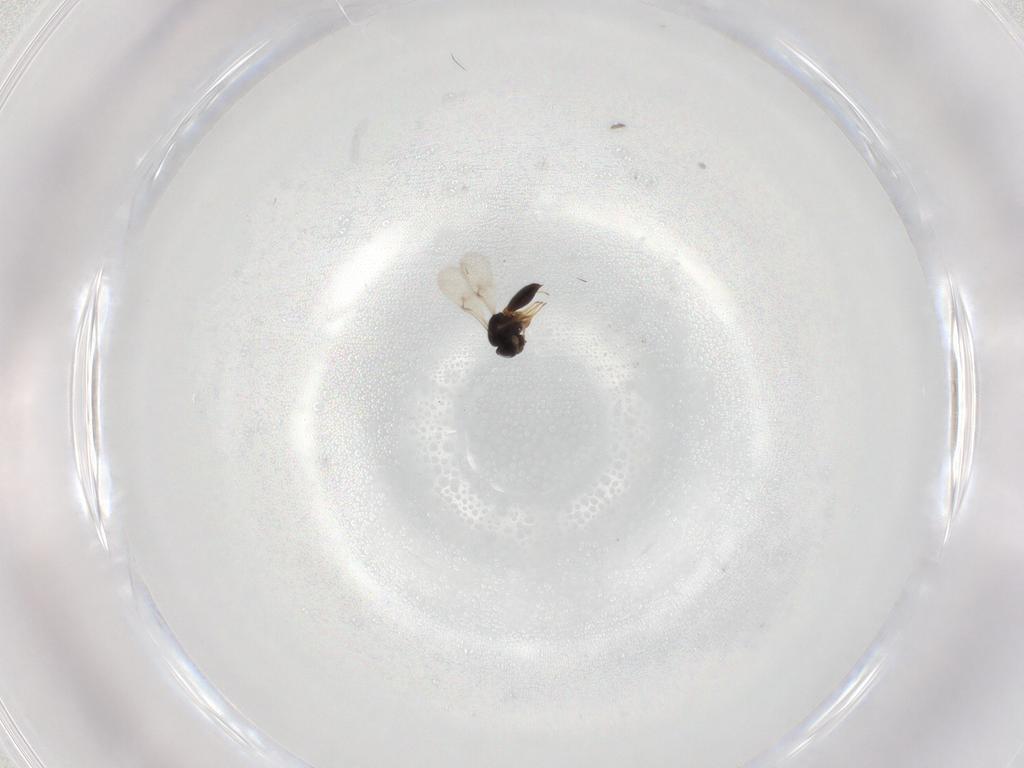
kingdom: Animalia
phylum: Arthropoda
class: Insecta
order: Hymenoptera
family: Scelionidae
